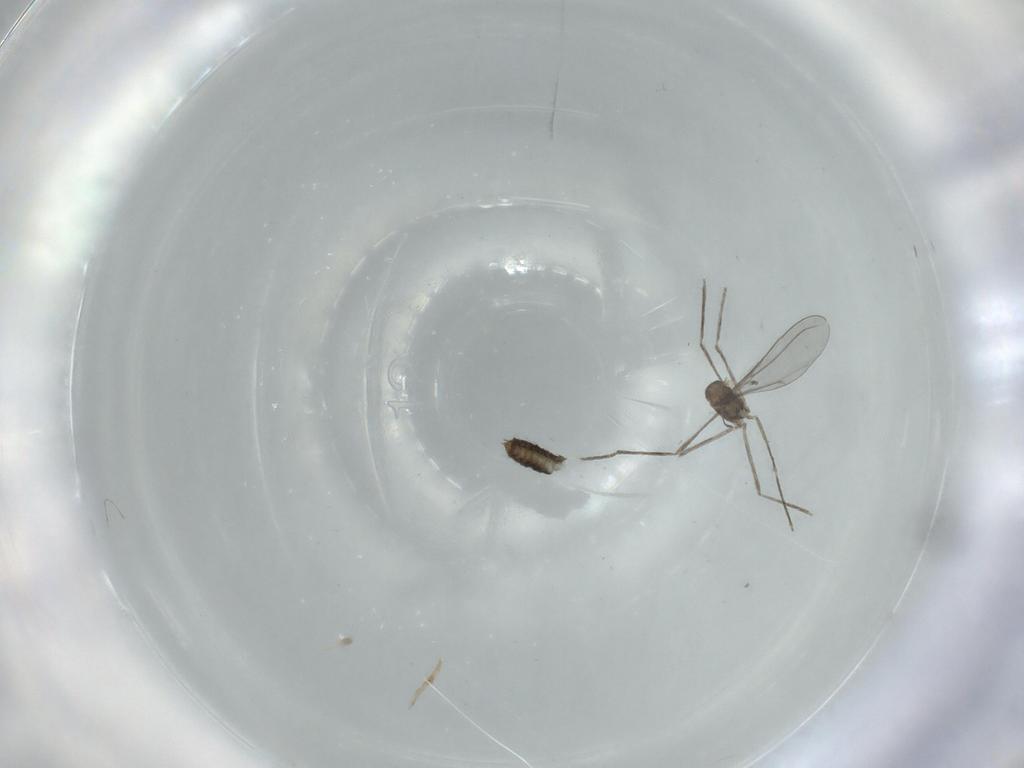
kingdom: Animalia
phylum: Arthropoda
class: Insecta
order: Diptera
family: Cecidomyiidae
